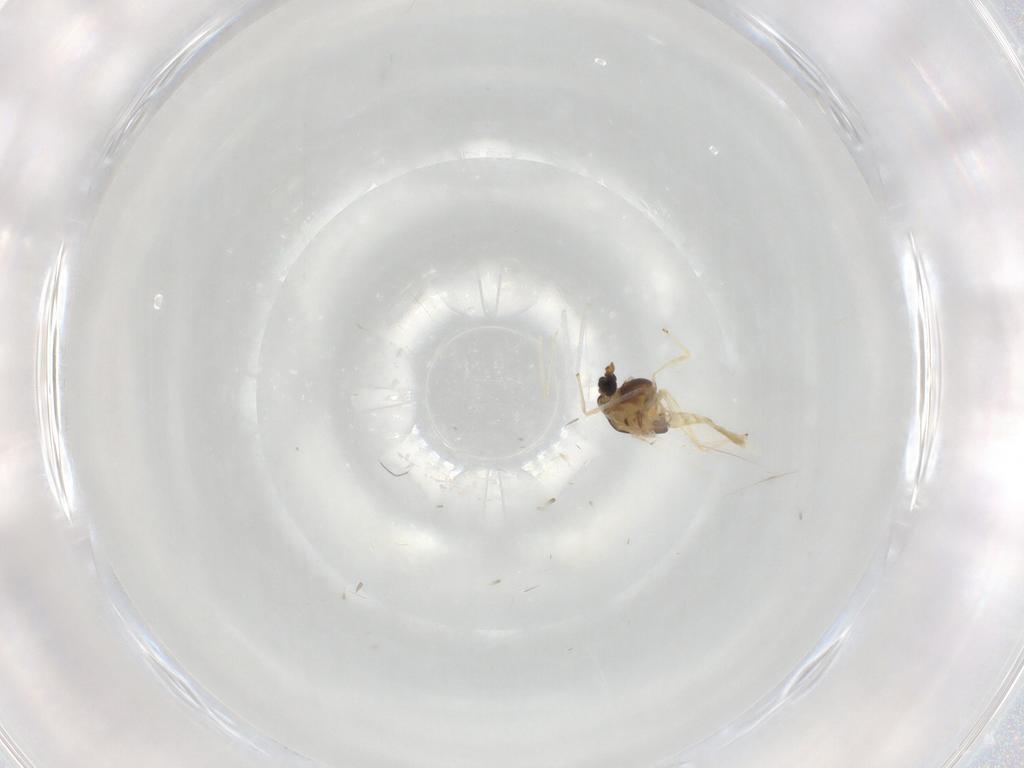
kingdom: Animalia
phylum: Arthropoda
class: Insecta
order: Diptera
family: Chironomidae
